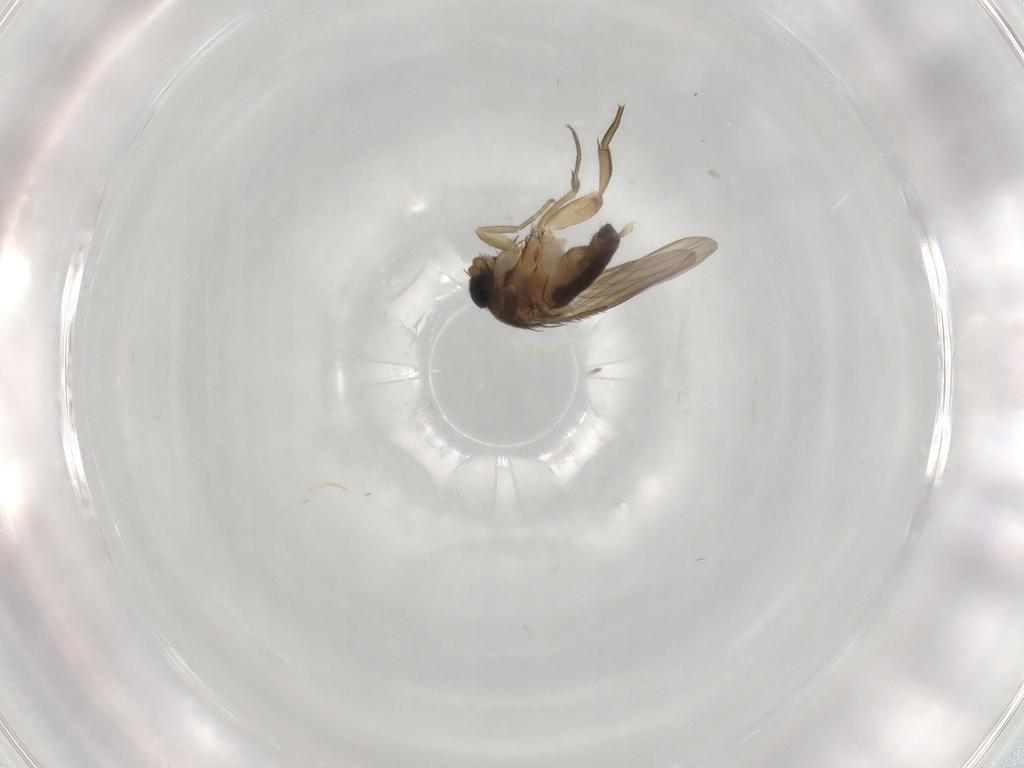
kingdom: Animalia
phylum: Arthropoda
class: Insecta
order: Diptera
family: Phoridae
